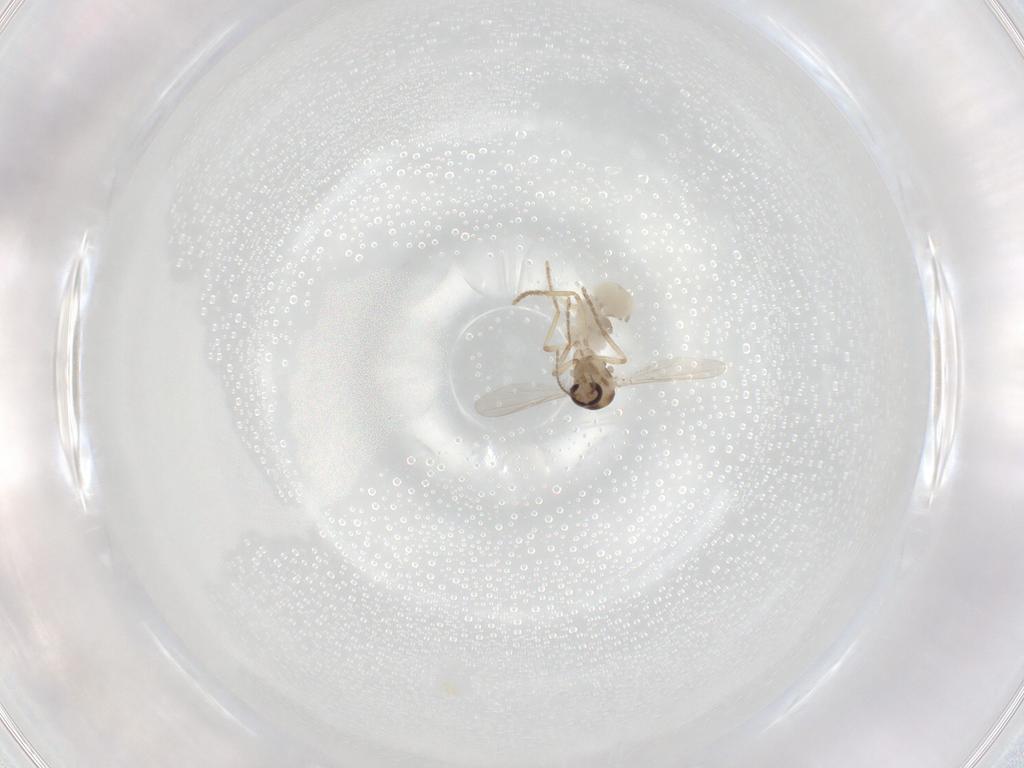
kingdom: Animalia
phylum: Arthropoda
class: Insecta
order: Diptera
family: Ceratopogonidae
